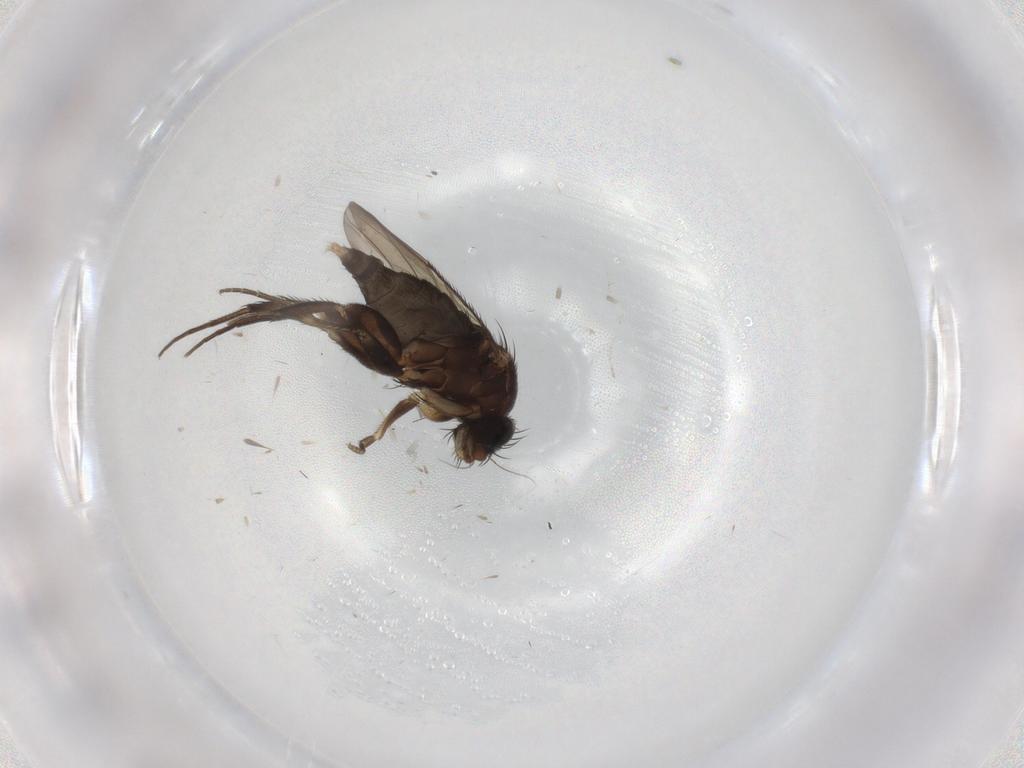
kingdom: Animalia
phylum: Arthropoda
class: Insecta
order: Diptera
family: Phoridae
